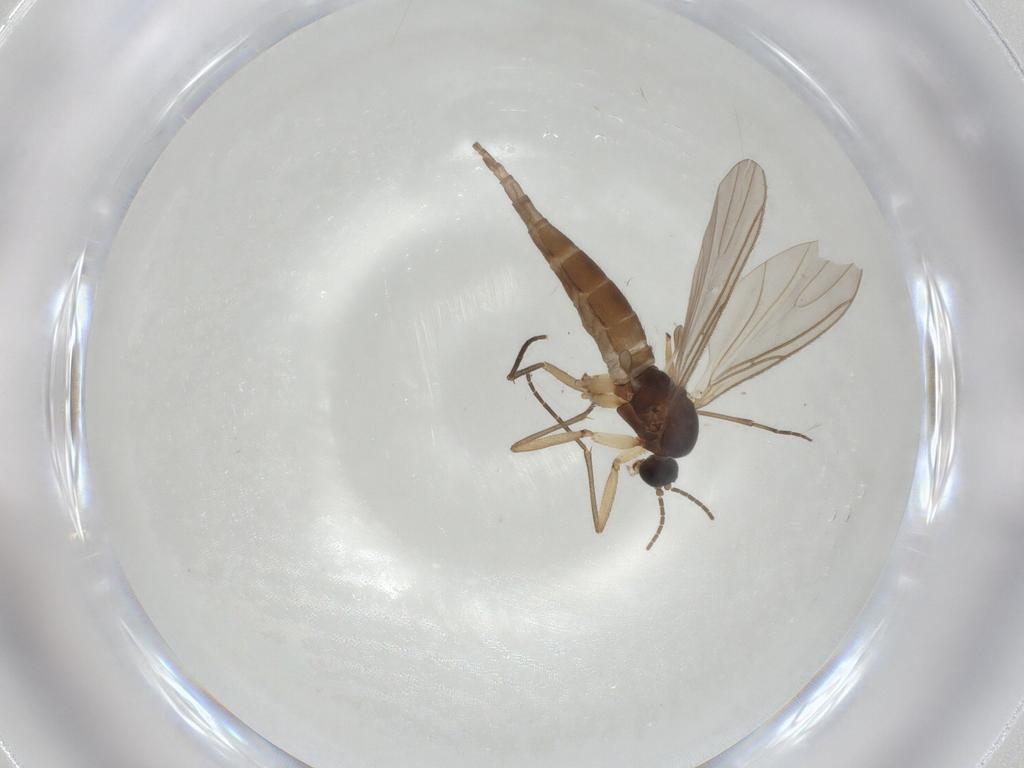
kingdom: Animalia
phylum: Arthropoda
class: Insecta
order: Diptera
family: Sciaridae
